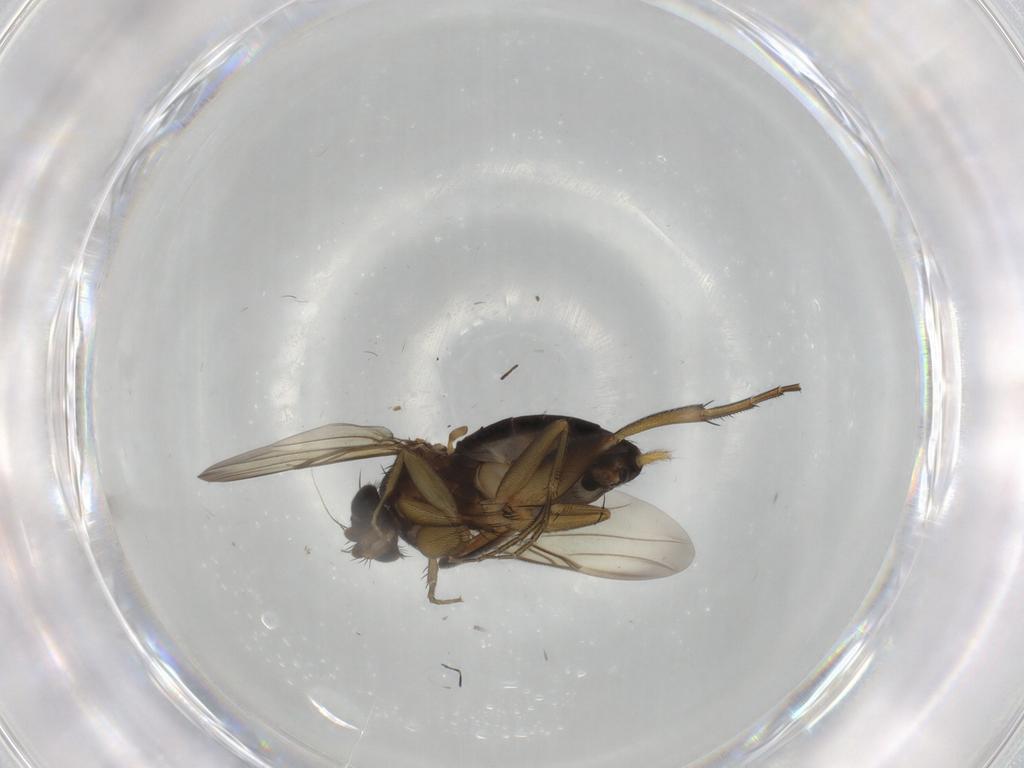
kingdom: Animalia
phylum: Arthropoda
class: Insecta
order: Diptera
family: Phoridae
